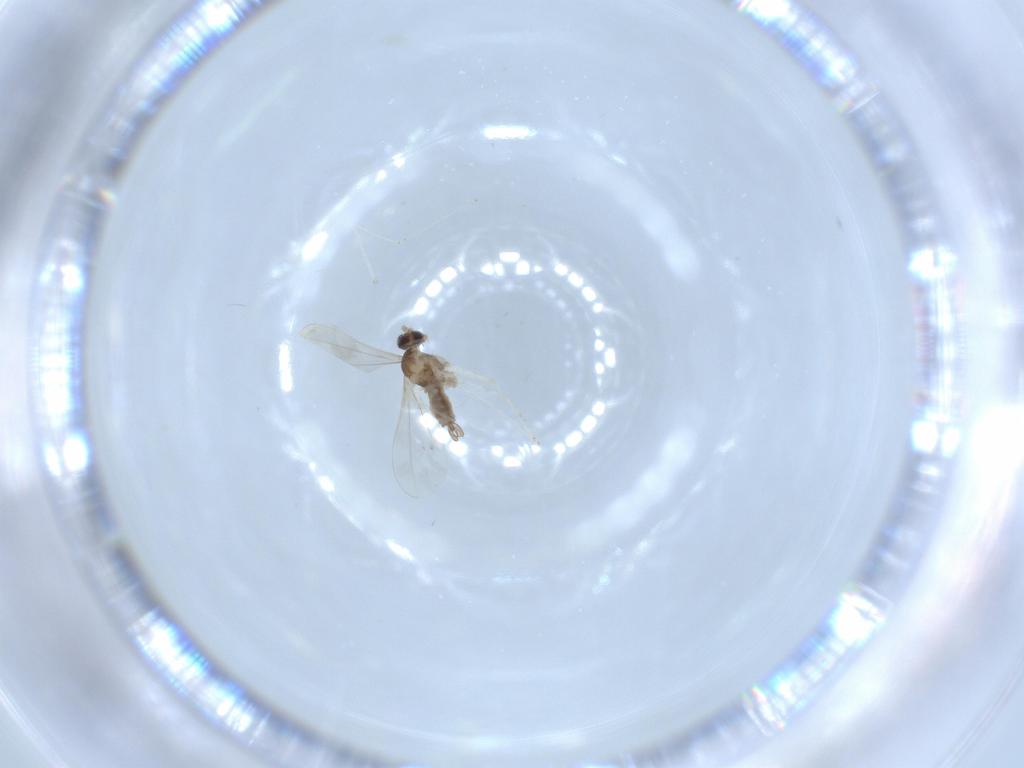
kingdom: Animalia
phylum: Arthropoda
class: Insecta
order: Diptera
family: Cecidomyiidae
